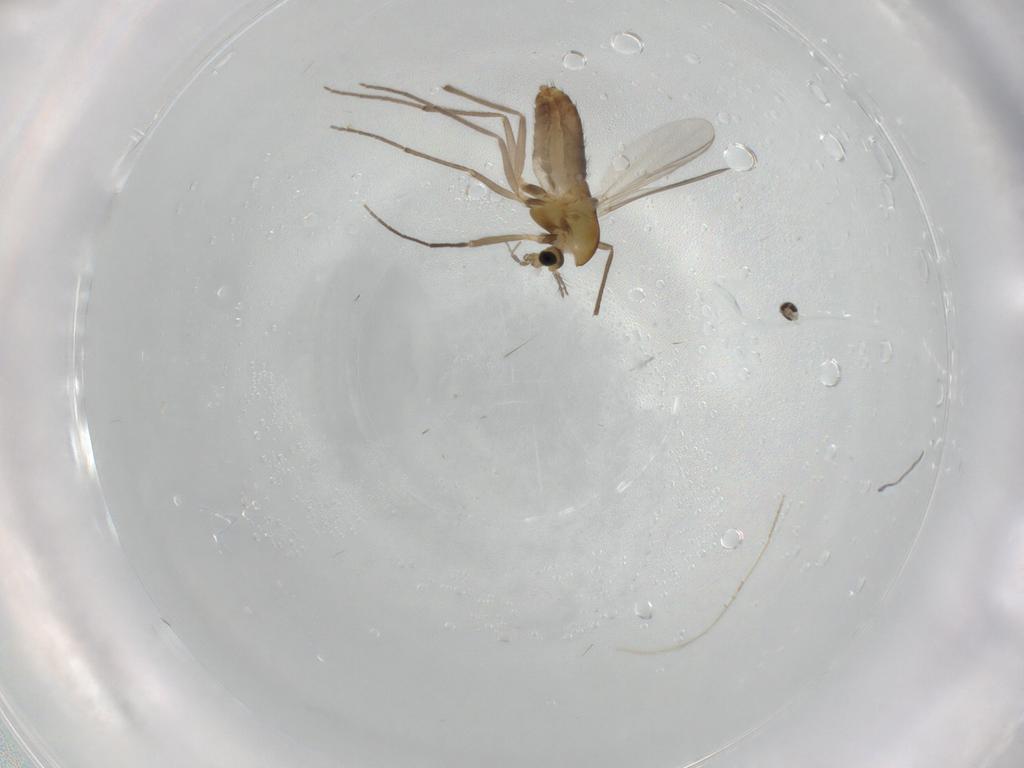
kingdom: Animalia
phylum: Arthropoda
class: Insecta
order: Diptera
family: Chironomidae
